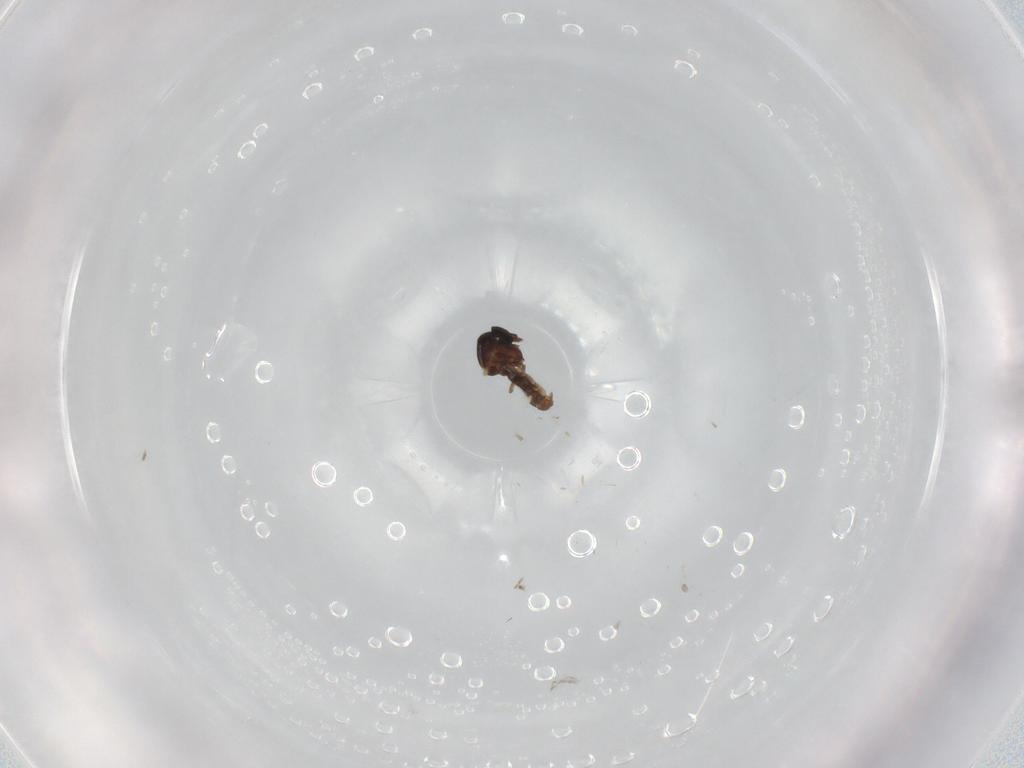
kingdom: Animalia
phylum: Arthropoda
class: Insecta
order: Diptera
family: Ceratopogonidae
